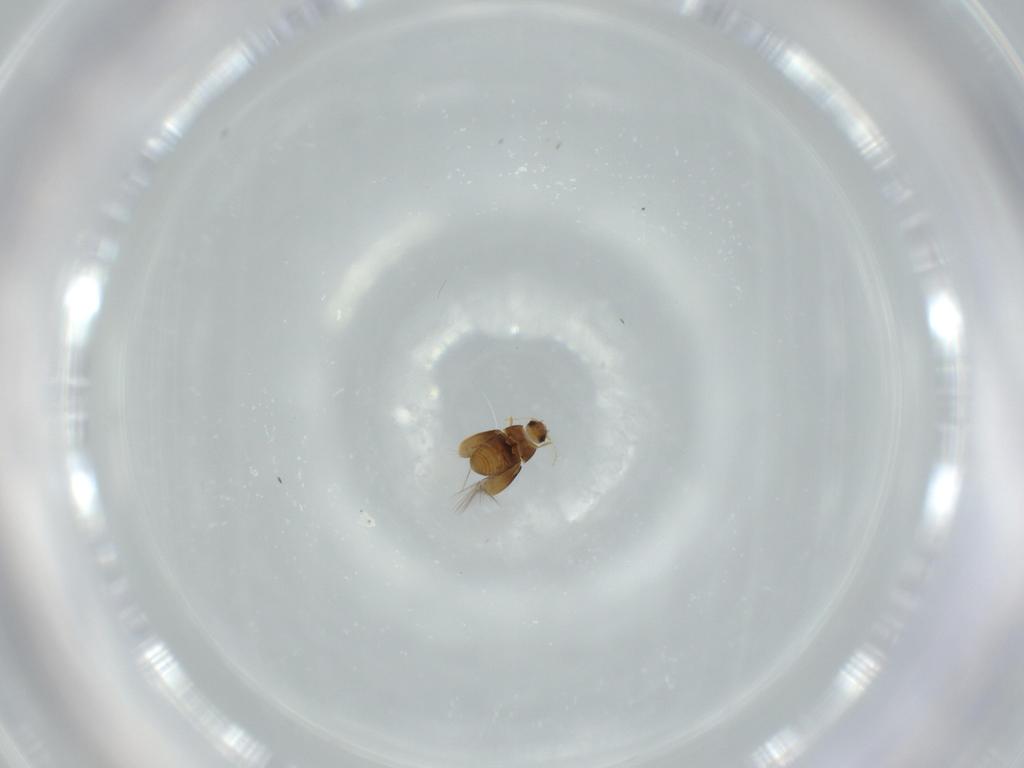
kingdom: Animalia
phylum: Arthropoda
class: Insecta
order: Coleoptera
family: Ptiliidae
